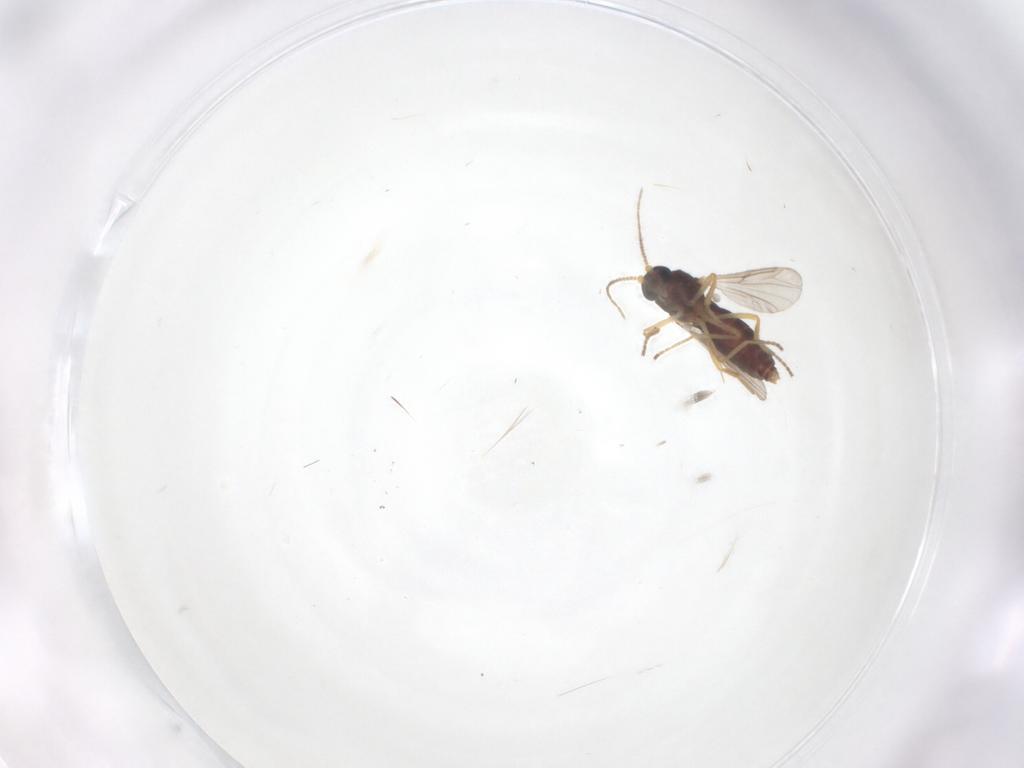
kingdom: Animalia
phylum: Arthropoda
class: Insecta
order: Diptera
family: Ceratopogonidae
